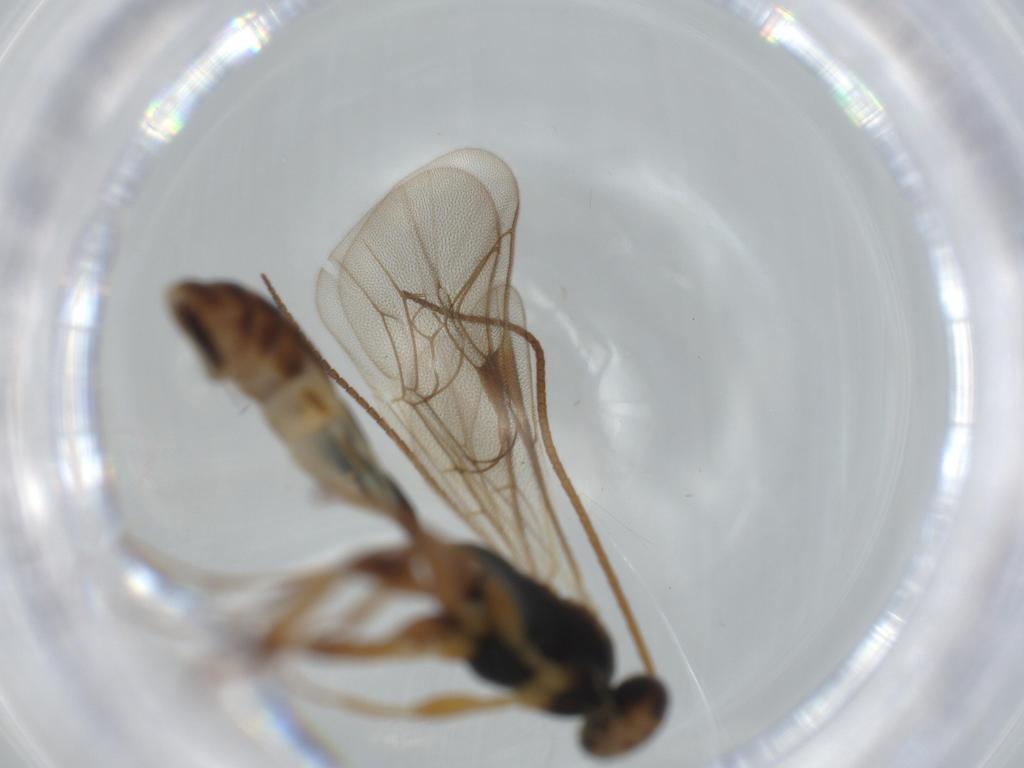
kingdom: Animalia
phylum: Arthropoda
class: Insecta
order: Hymenoptera
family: Ichneumonidae
